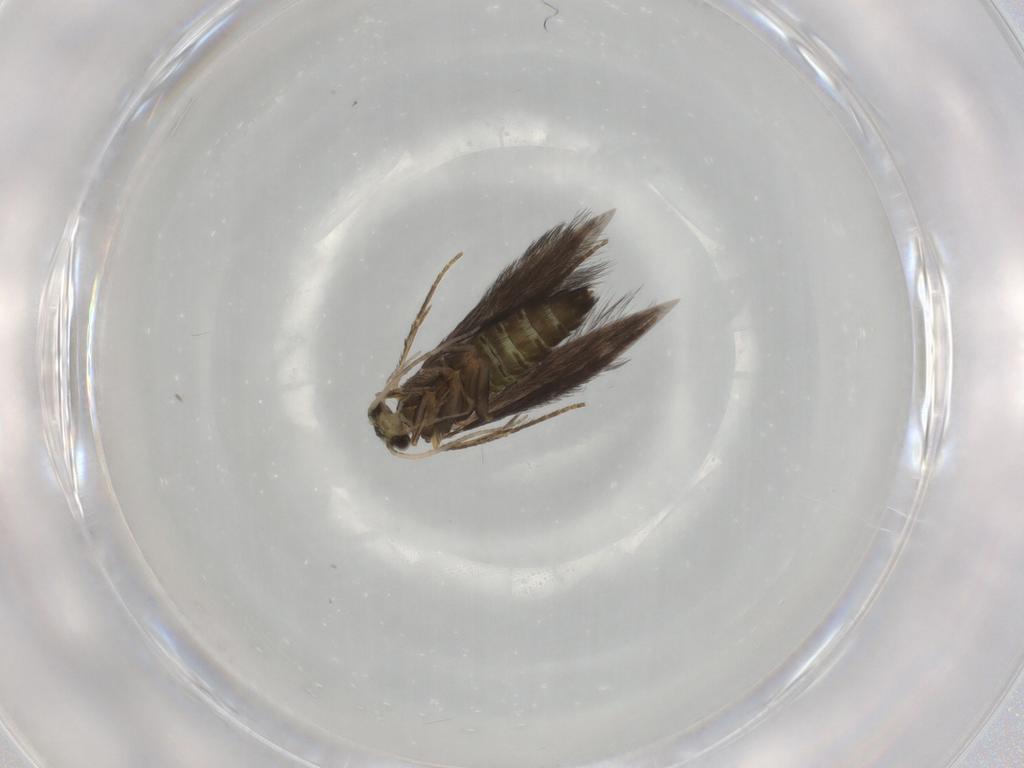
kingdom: Animalia
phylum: Arthropoda
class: Insecta
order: Trichoptera
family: Hydroptilidae
